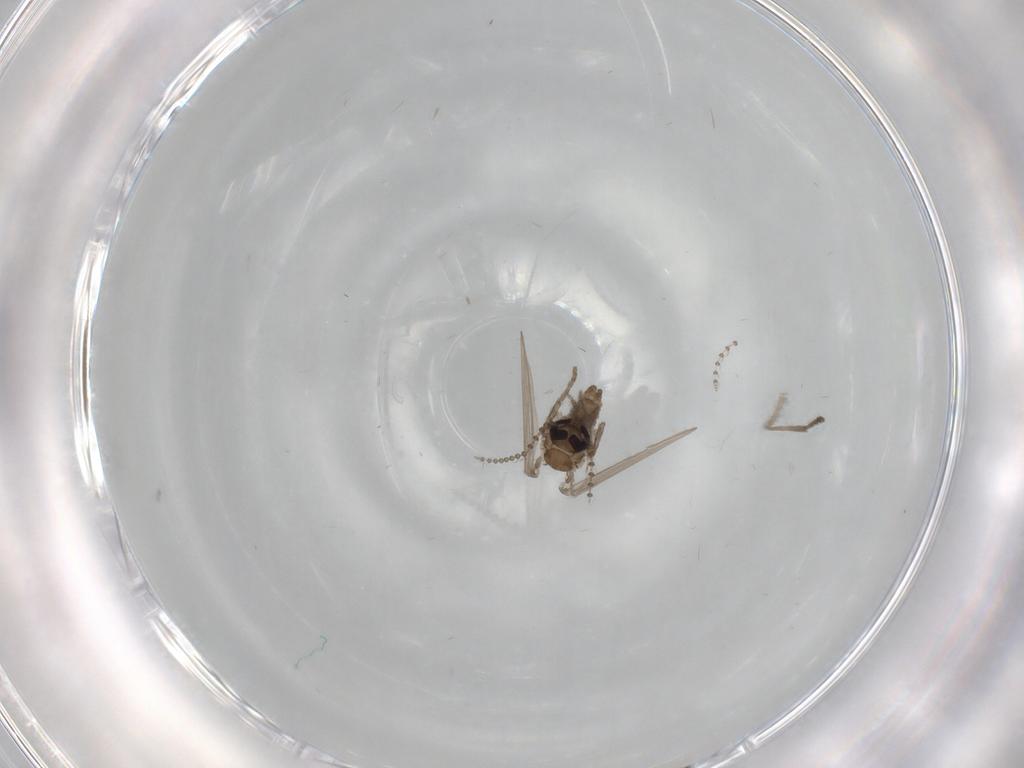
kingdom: Animalia
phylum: Arthropoda
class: Insecta
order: Diptera
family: Psychodidae
